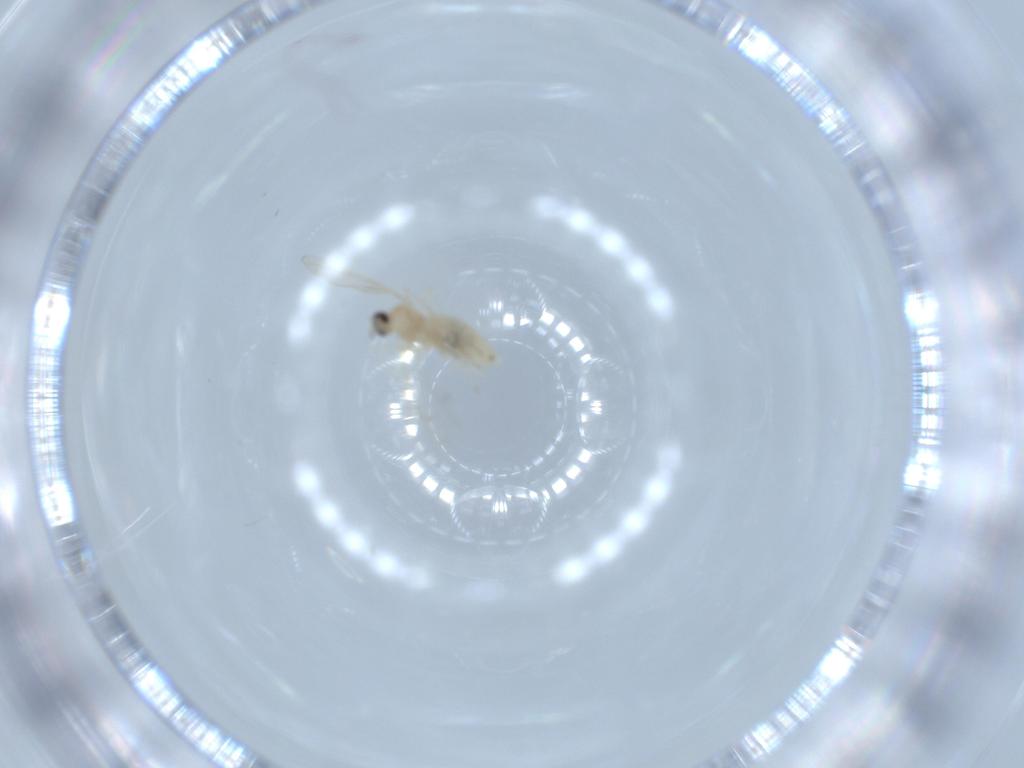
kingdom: Animalia
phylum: Arthropoda
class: Insecta
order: Diptera
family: Cecidomyiidae
